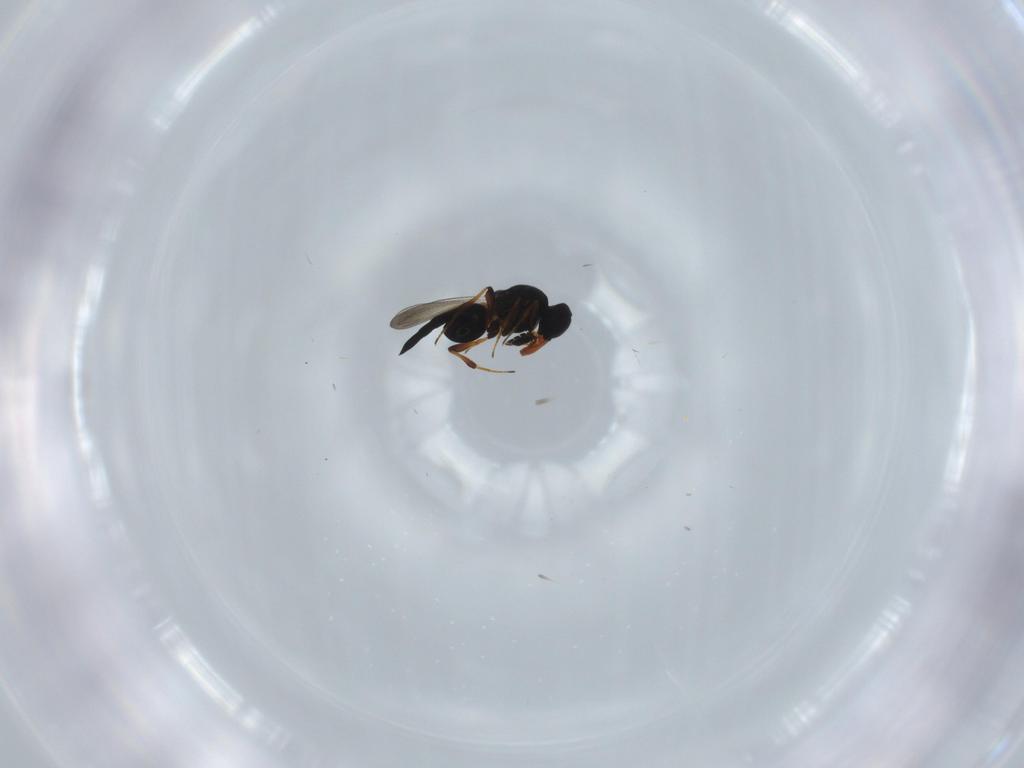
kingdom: Animalia
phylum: Arthropoda
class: Insecta
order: Hymenoptera
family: Platygastridae
